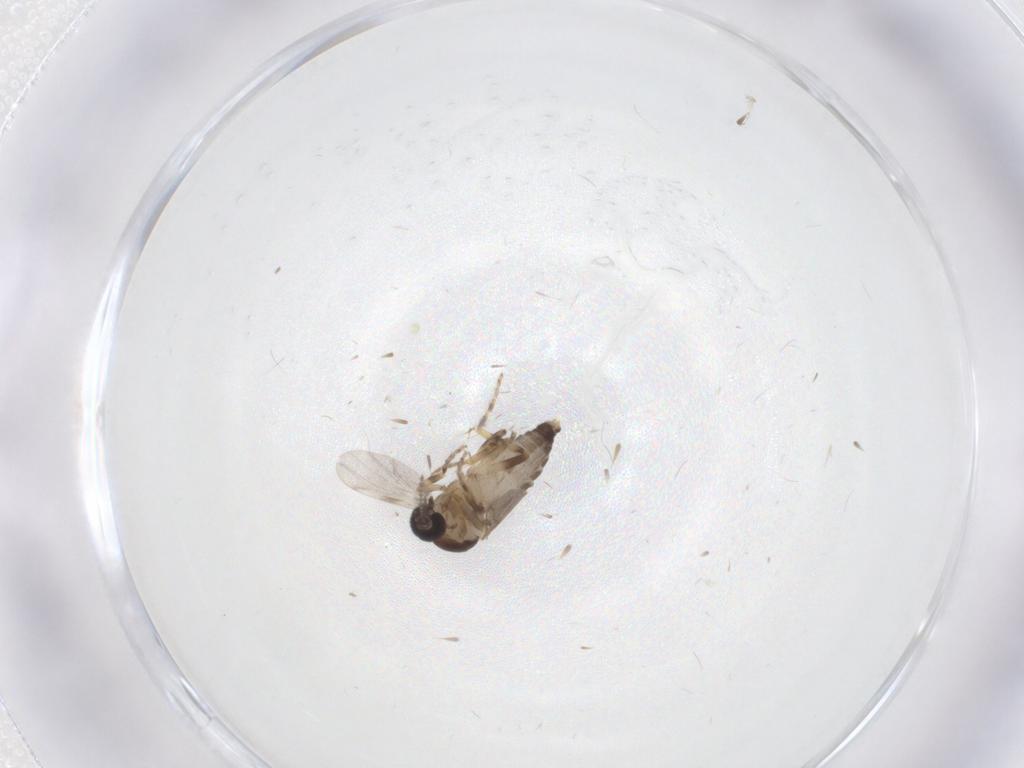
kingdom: Animalia
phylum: Arthropoda
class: Insecta
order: Diptera
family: Ceratopogonidae
